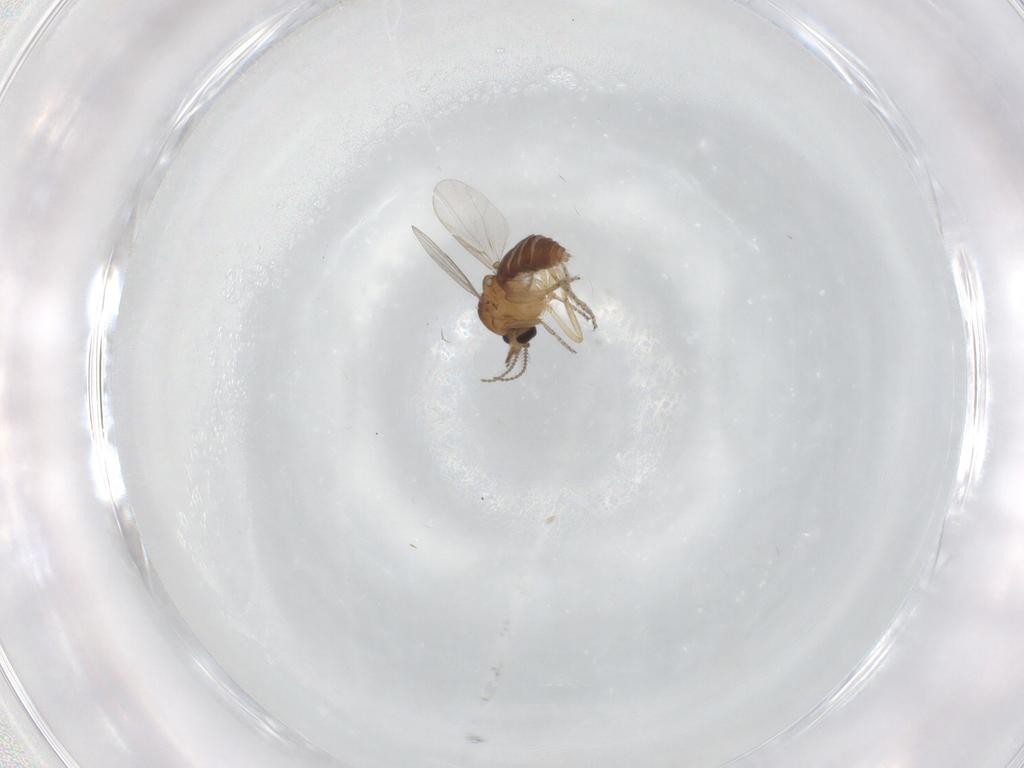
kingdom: Animalia
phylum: Arthropoda
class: Insecta
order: Diptera
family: Ceratopogonidae
